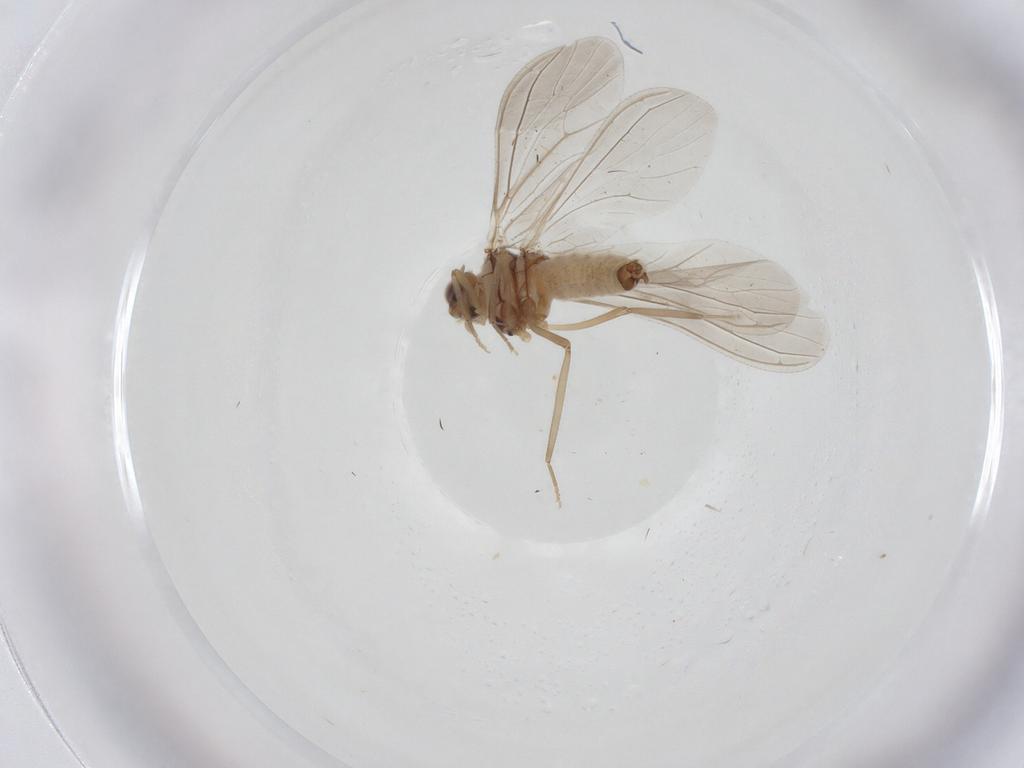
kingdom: Animalia
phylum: Arthropoda
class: Insecta
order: Neuroptera
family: Coniopterygidae
